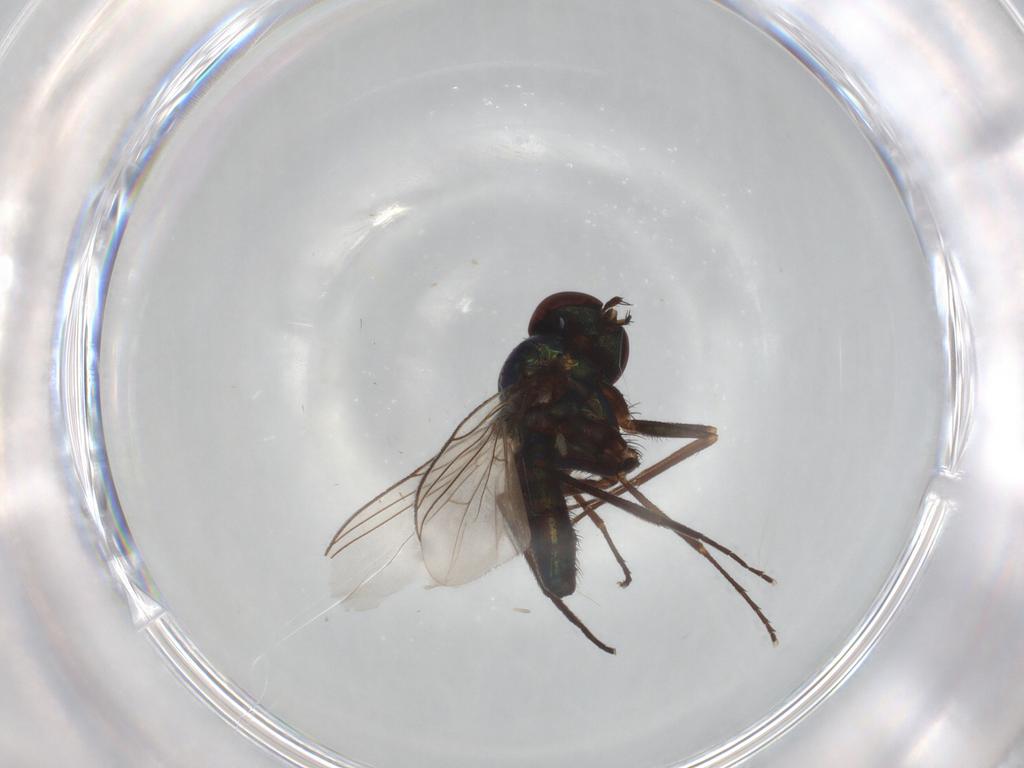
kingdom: Animalia
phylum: Arthropoda
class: Insecta
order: Diptera
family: Dolichopodidae
